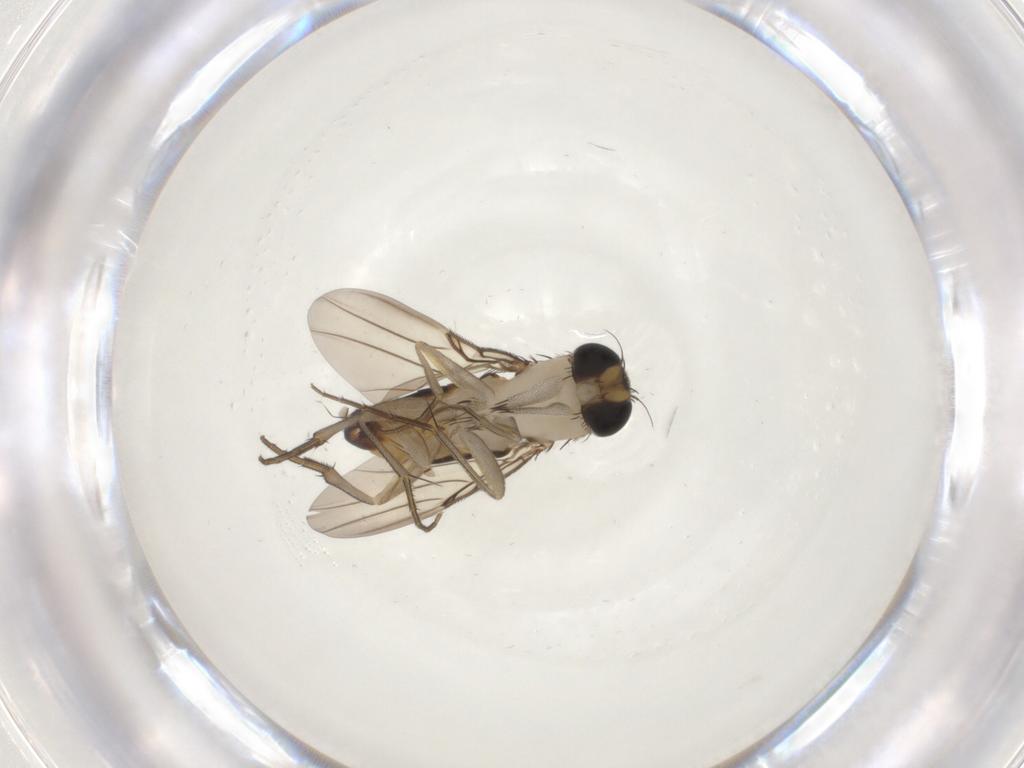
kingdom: Animalia
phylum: Arthropoda
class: Insecta
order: Diptera
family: Phoridae
